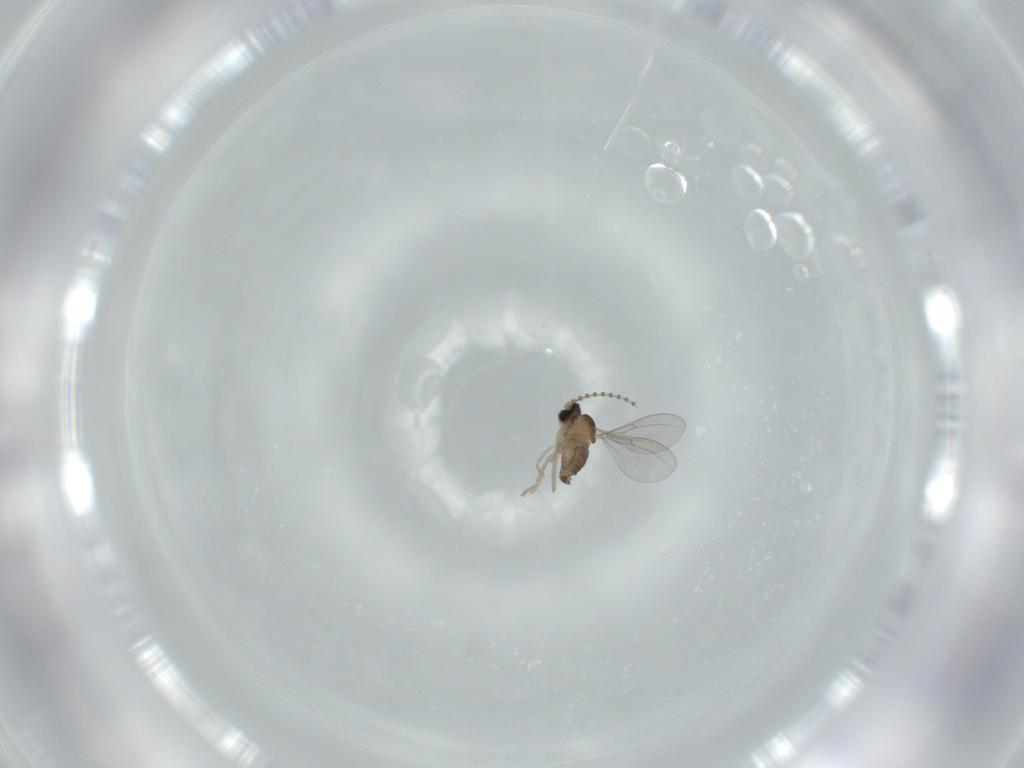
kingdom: Animalia
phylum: Arthropoda
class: Insecta
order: Diptera
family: Cecidomyiidae
